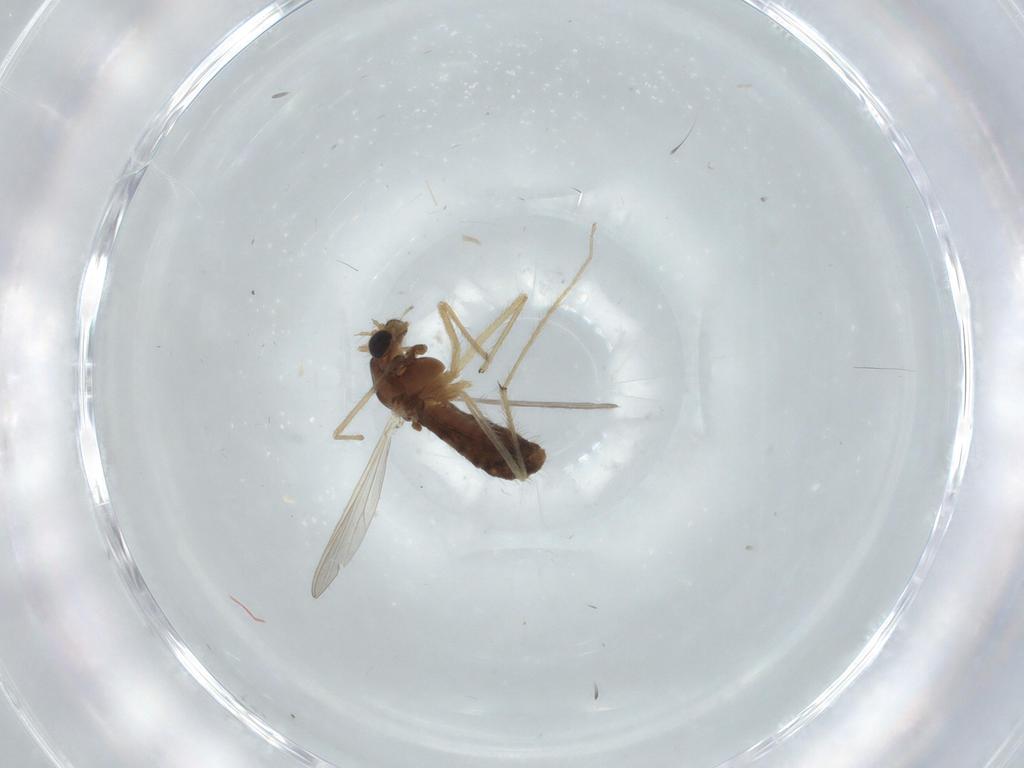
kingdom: Animalia
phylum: Arthropoda
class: Insecta
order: Diptera
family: Chironomidae
